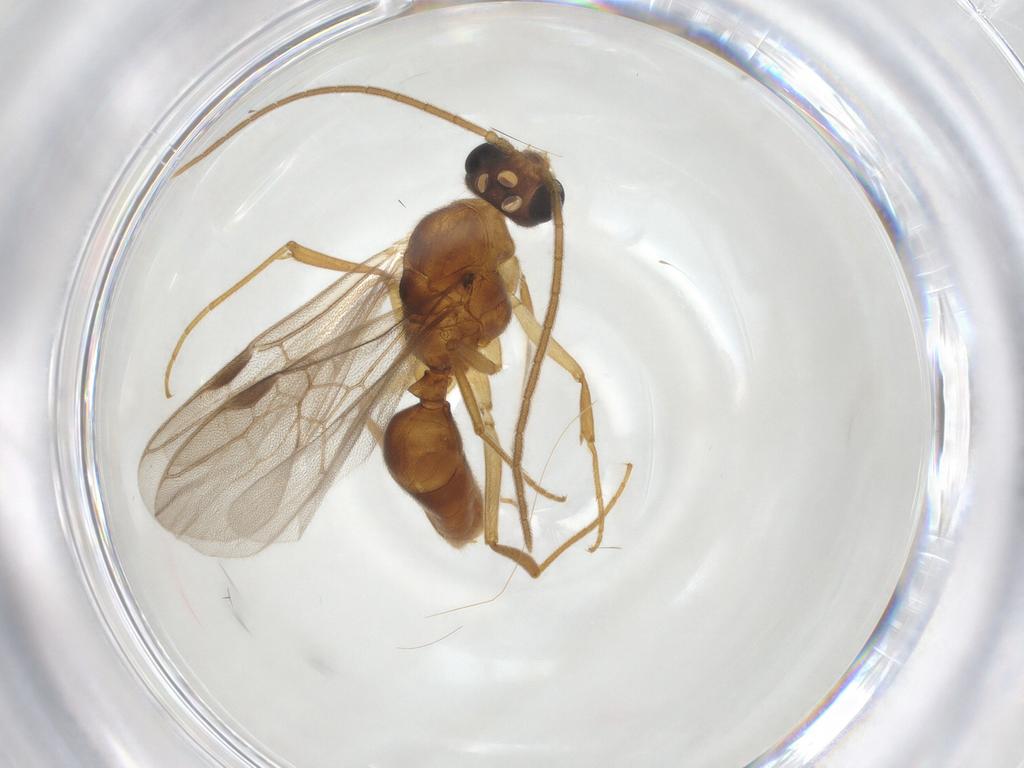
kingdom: Animalia
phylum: Arthropoda
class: Insecta
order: Hymenoptera
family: Formicidae
